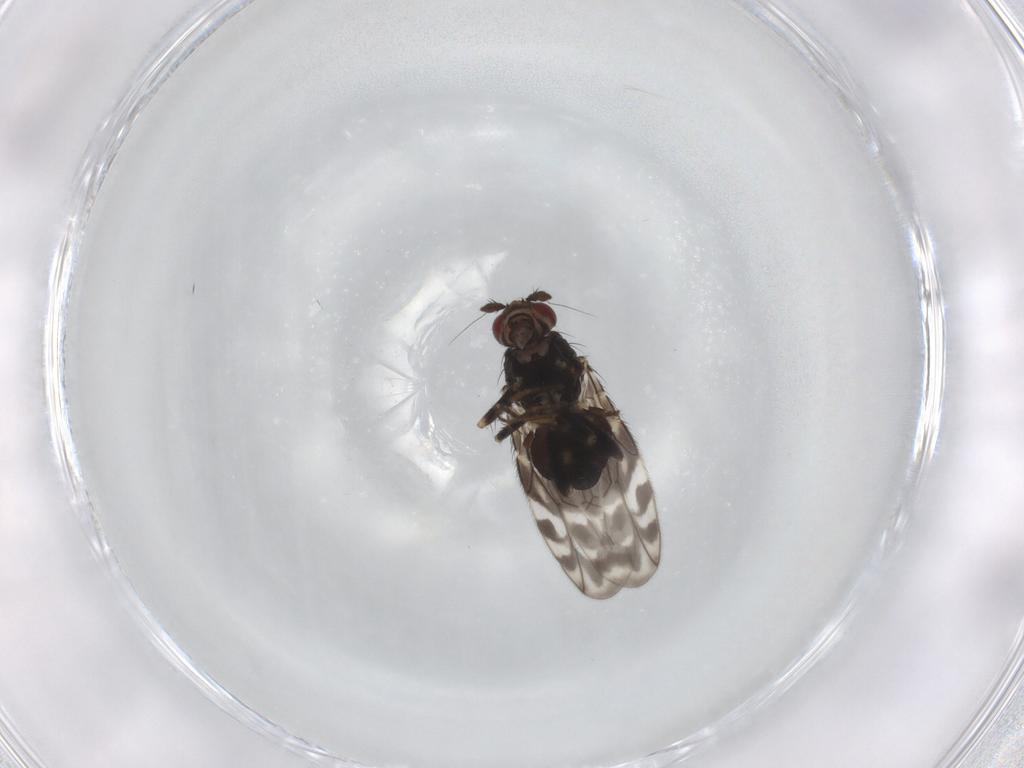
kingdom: Animalia
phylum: Arthropoda
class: Insecta
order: Diptera
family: Sphaeroceridae
